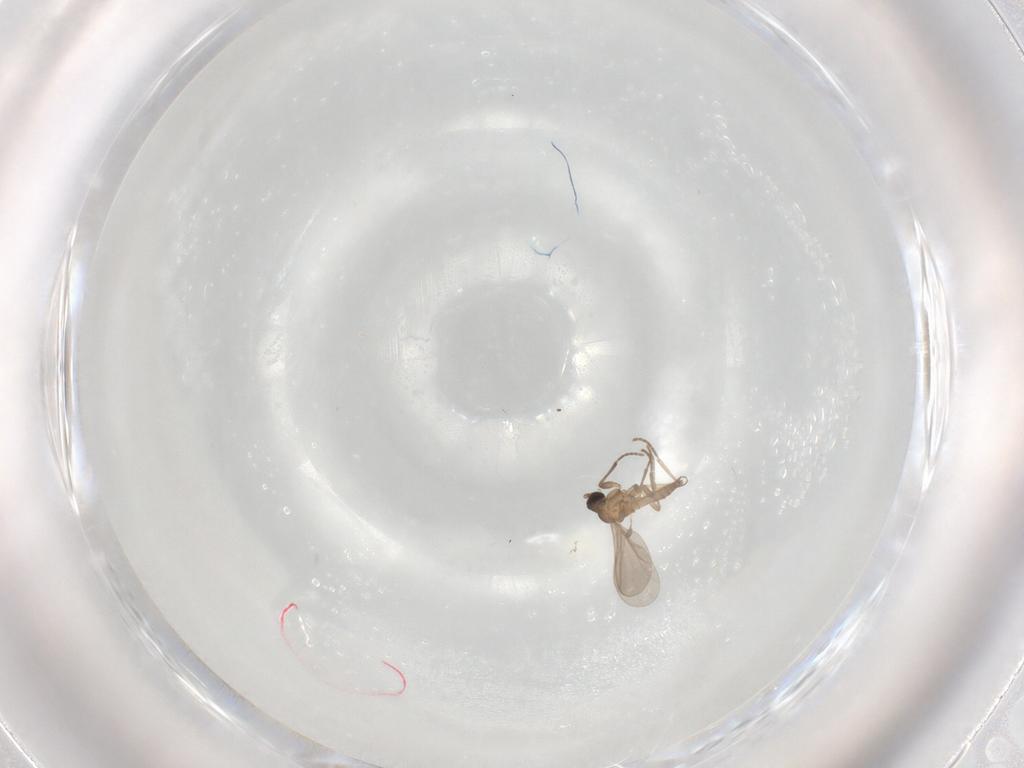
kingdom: Animalia
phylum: Arthropoda
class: Insecta
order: Diptera
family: Sciaridae
